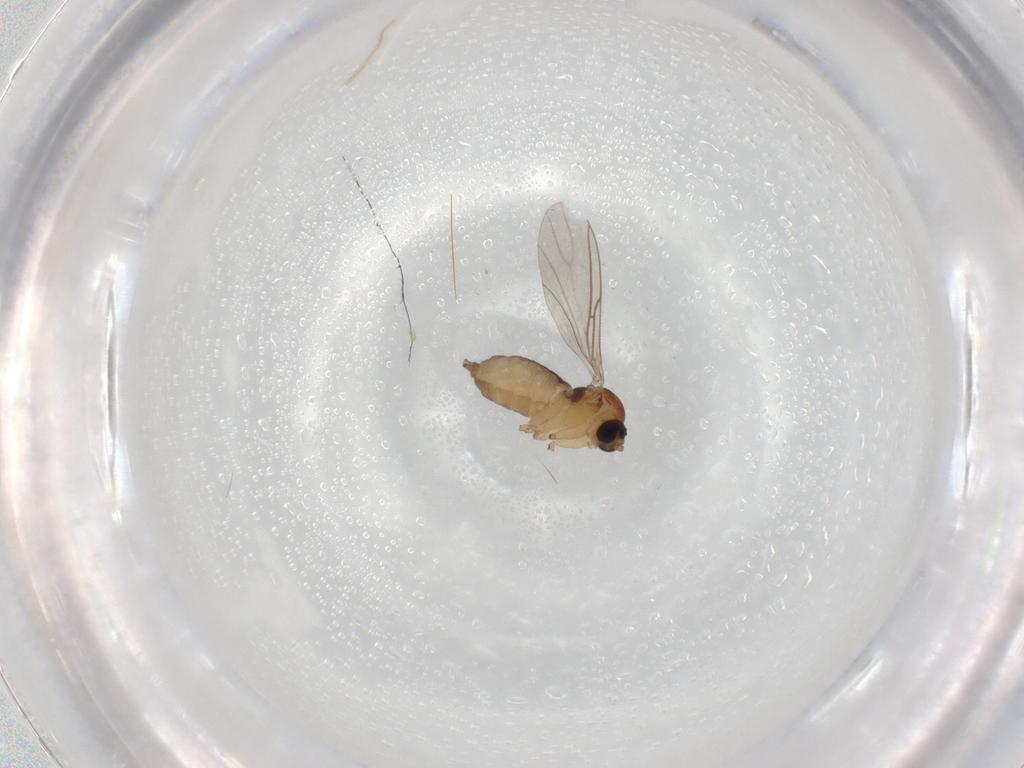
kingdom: Animalia
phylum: Arthropoda
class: Insecta
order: Diptera
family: Sciaridae
